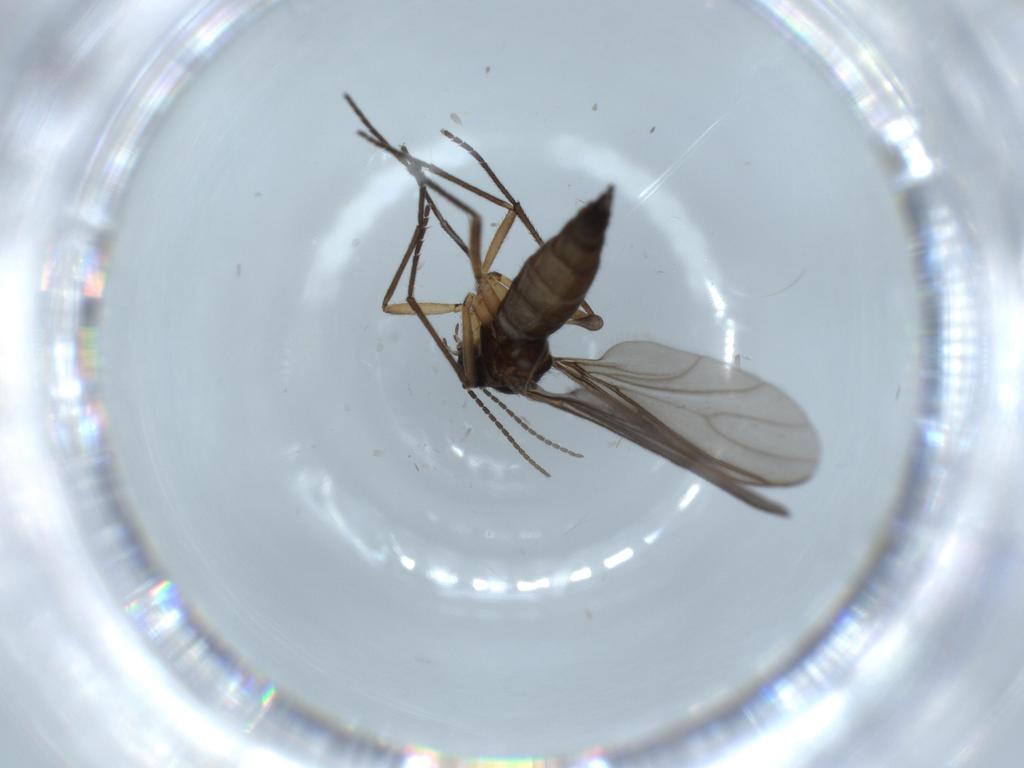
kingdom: Animalia
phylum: Arthropoda
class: Insecta
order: Diptera
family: Sciaridae
